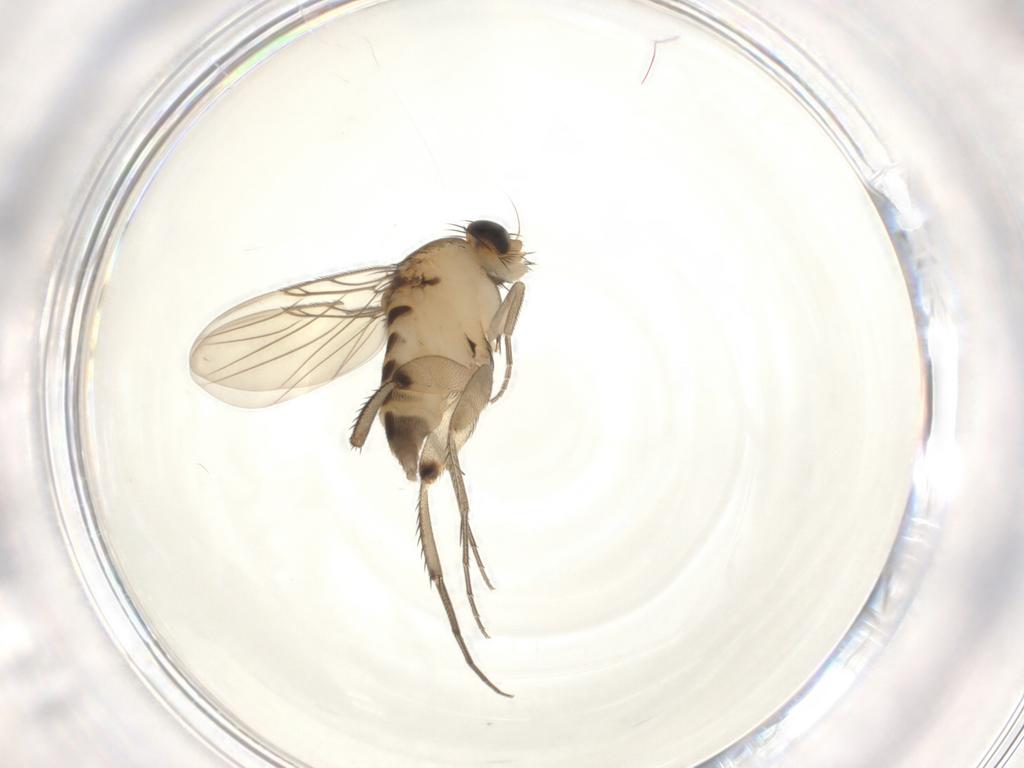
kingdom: Animalia
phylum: Arthropoda
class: Insecta
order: Diptera
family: Phoridae
